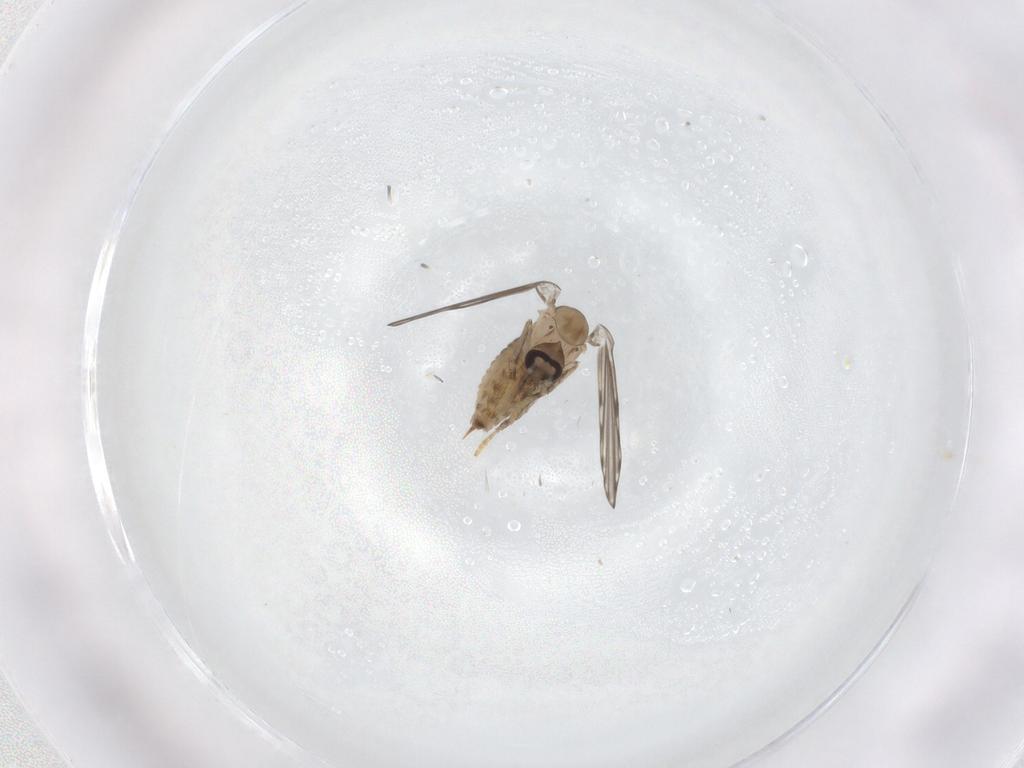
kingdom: Animalia
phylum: Arthropoda
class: Insecta
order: Diptera
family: Psychodidae
